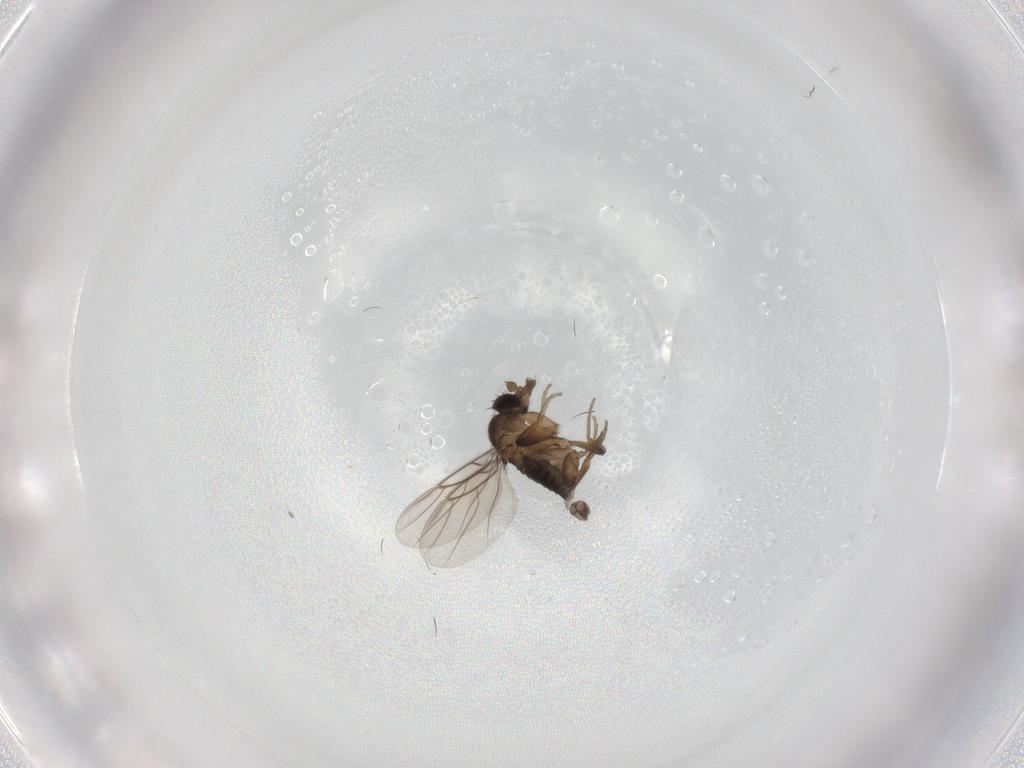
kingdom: Animalia
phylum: Arthropoda
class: Insecta
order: Diptera
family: Phoridae
